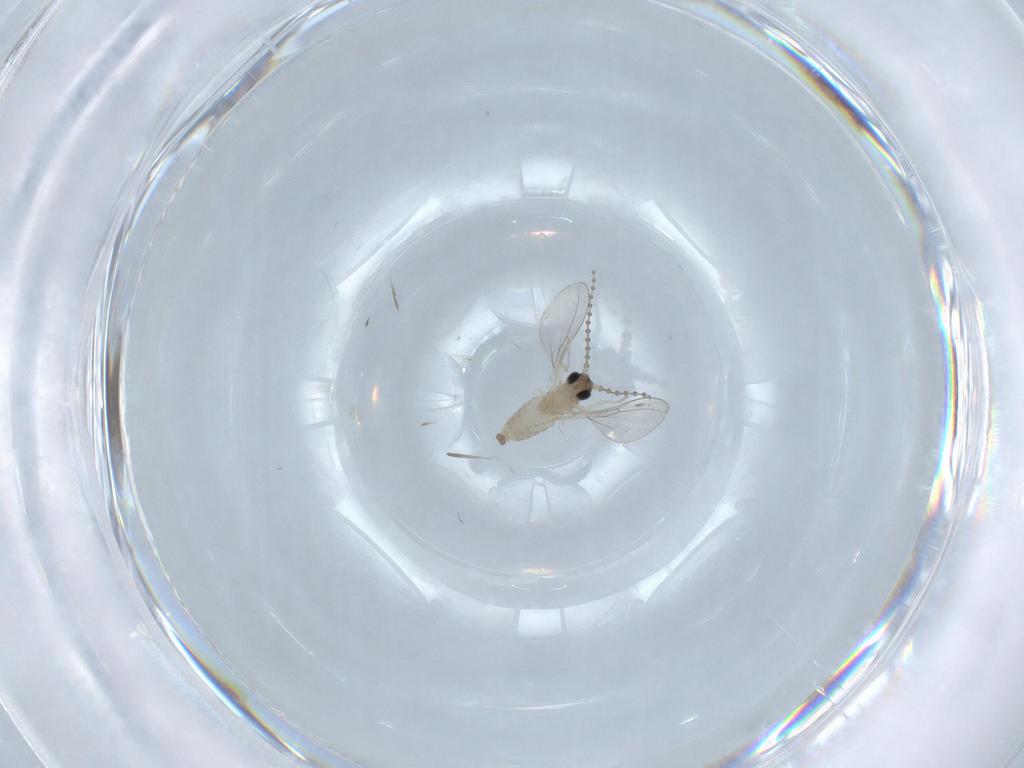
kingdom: Animalia
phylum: Arthropoda
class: Insecta
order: Diptera
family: Cecidomyiidae
